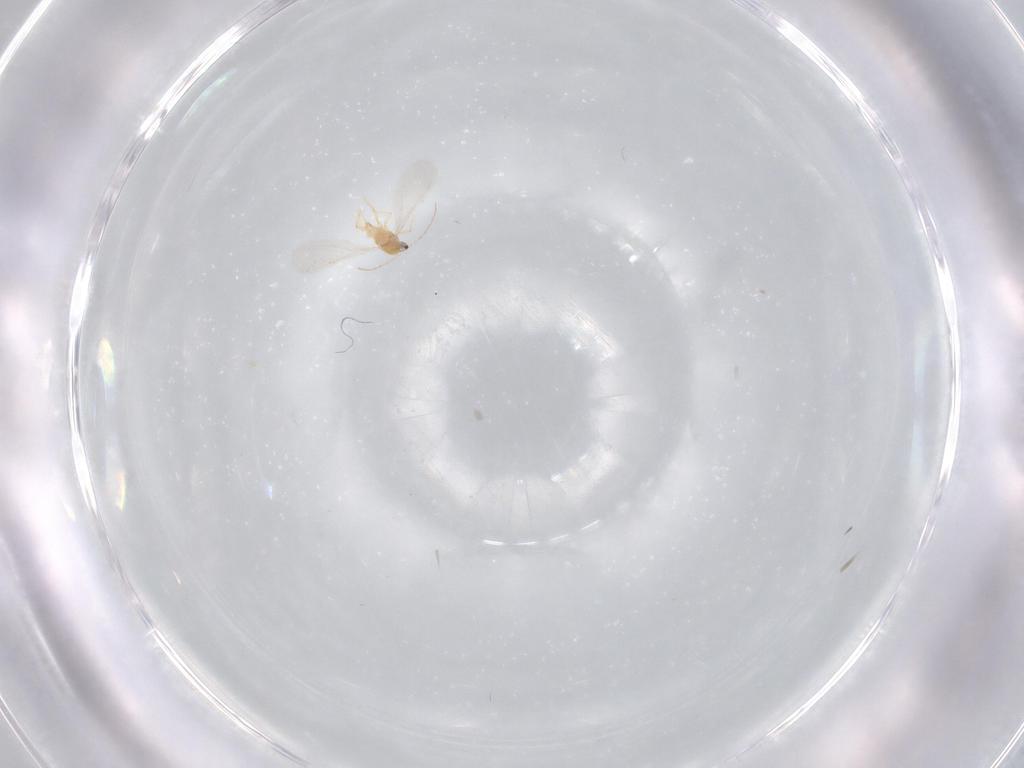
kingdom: Animalia
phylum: Arthropoda
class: Insecta
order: Hemiptera
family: Diaspididae
